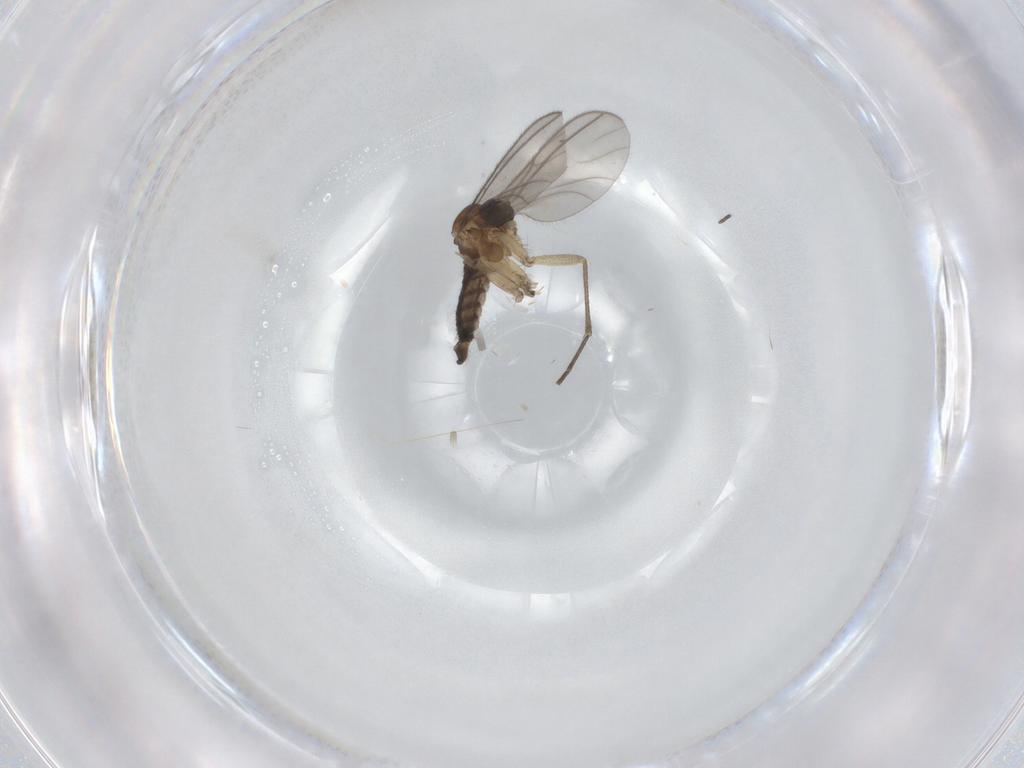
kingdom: Animalia
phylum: Arthropoda
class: Insecta
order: Diptera
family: Sciaridae
